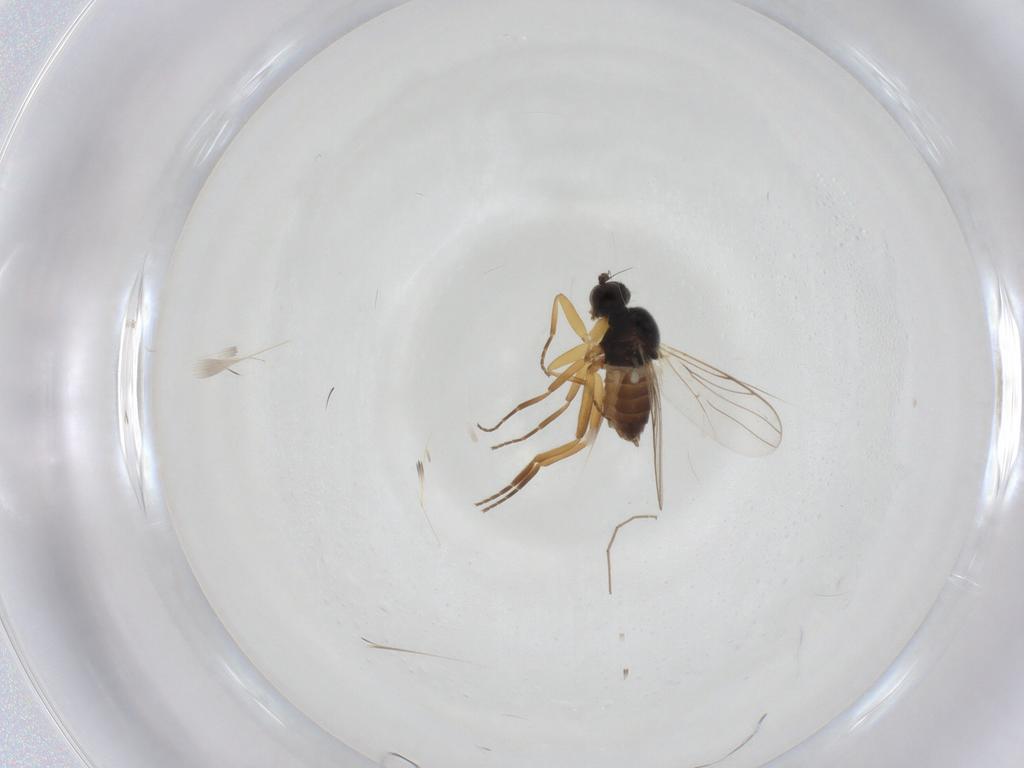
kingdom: Animalia
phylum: Arthropoda
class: Insecta
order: Diptera
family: Hybotidae
